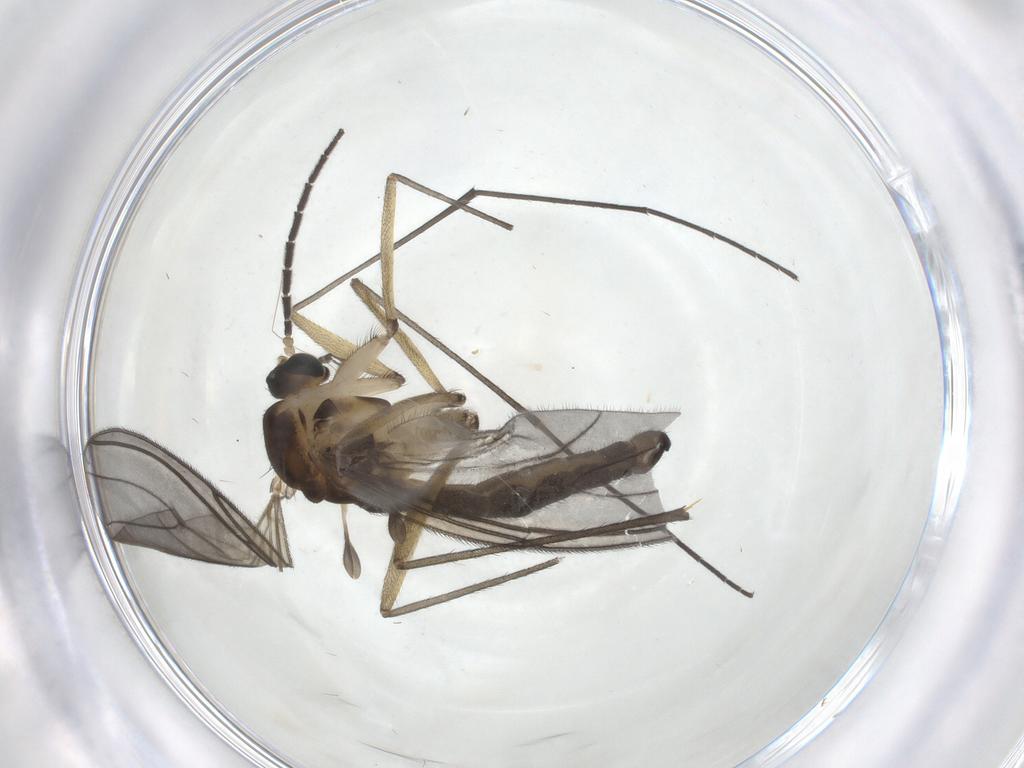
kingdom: Animalia
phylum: Arthropoda
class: Insecta
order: Diptera
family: Sciaridae
